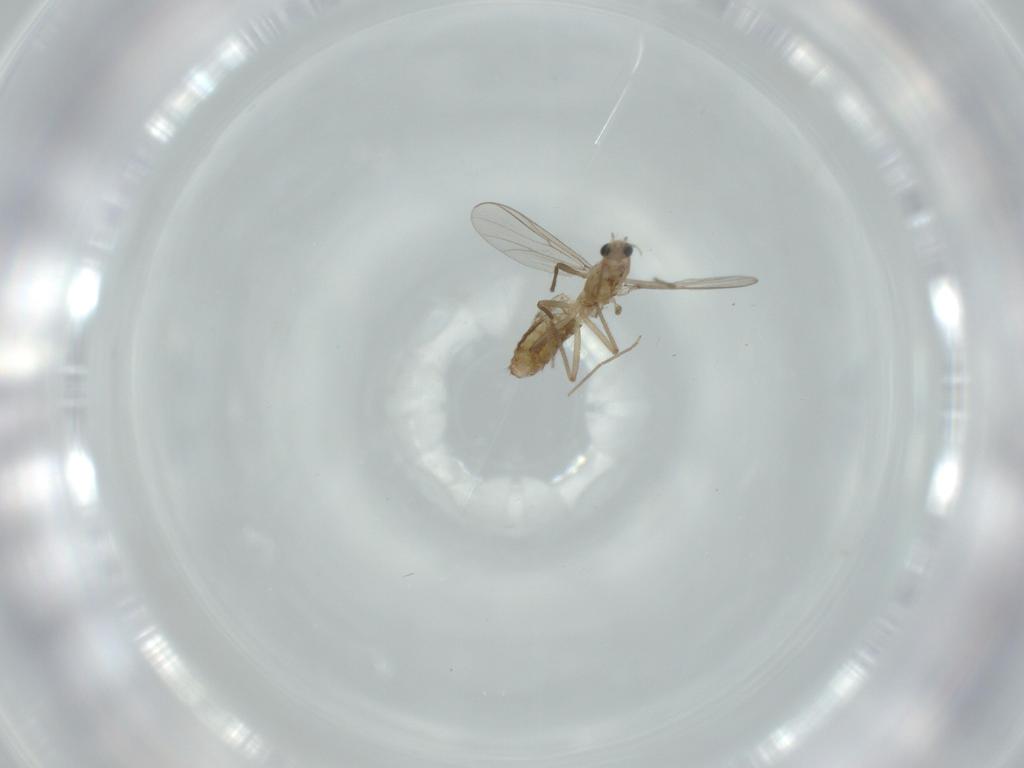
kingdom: Animalia
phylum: Arthropoda
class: Insecta
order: Diptera
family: Chironomidae
